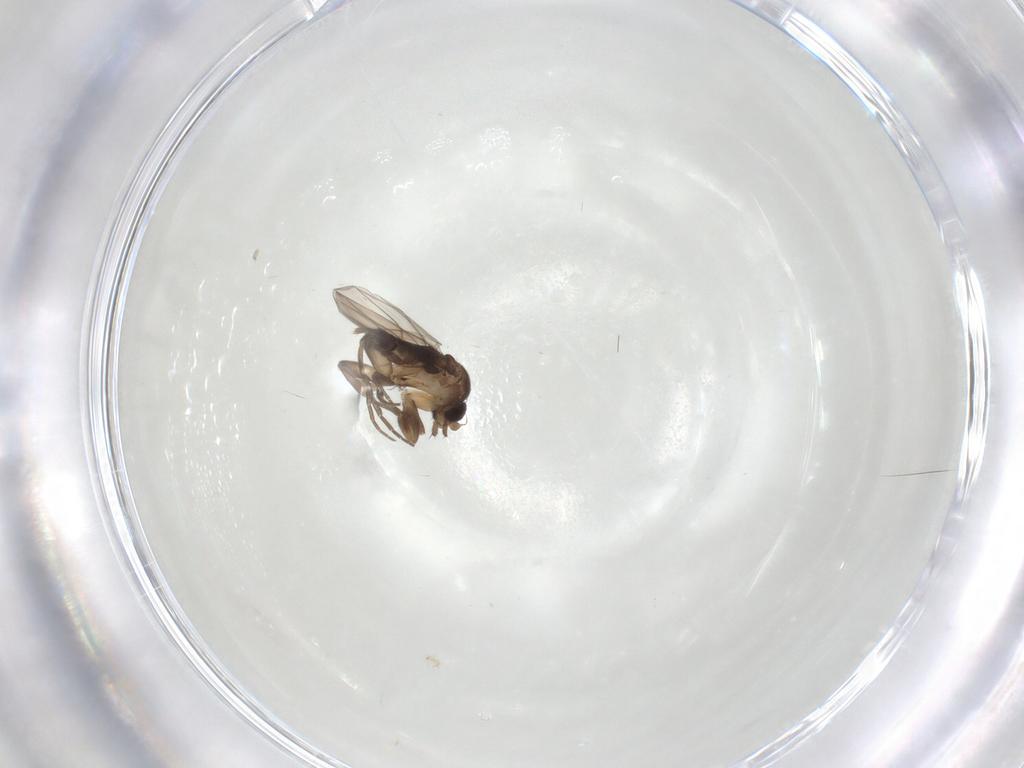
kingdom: Animalia
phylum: Arthropoda
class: Insecta
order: Diptera
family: Phoridae
